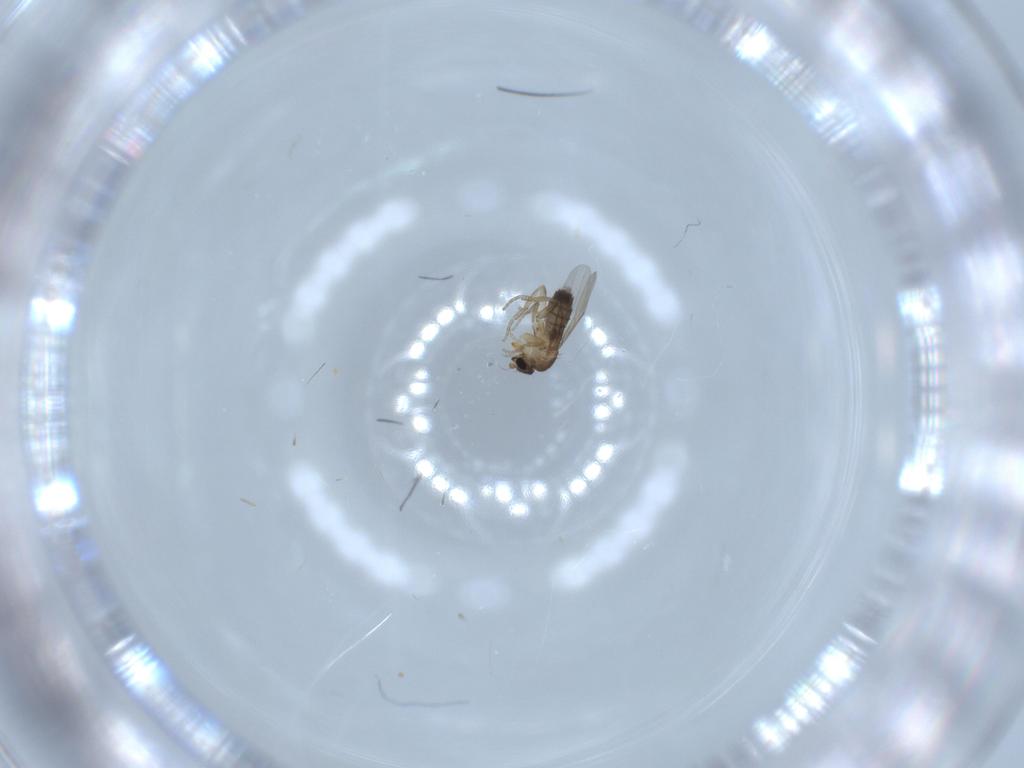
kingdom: Animalia
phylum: Arthropoda
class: Insecta
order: Diptera
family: Phoridae
